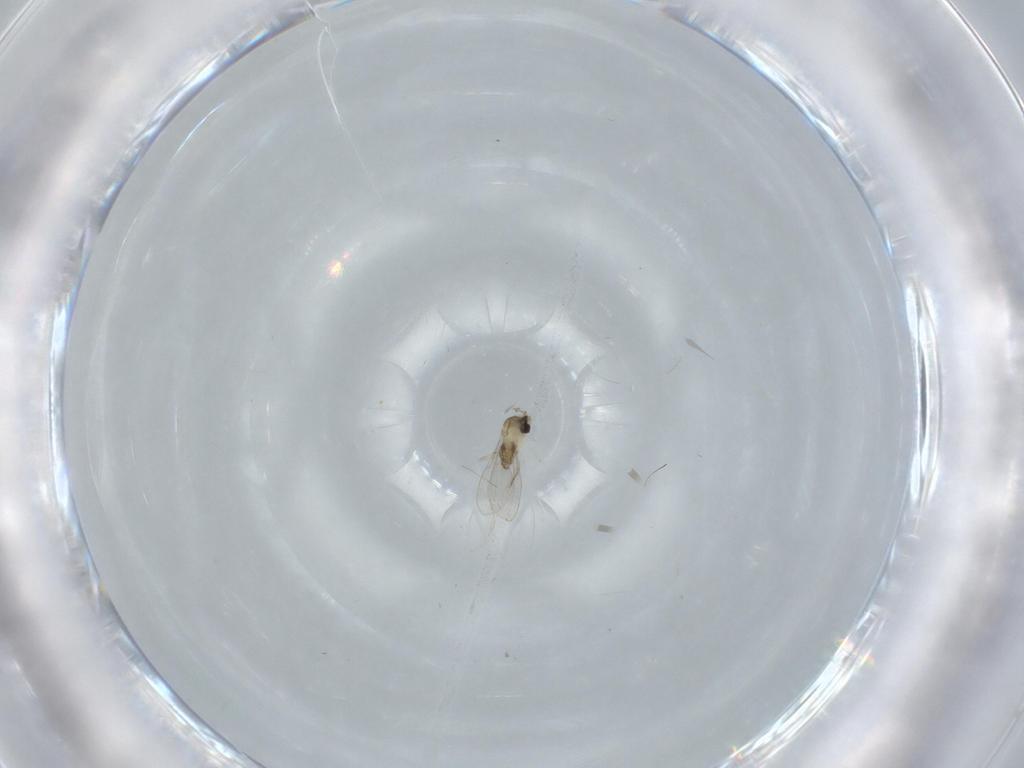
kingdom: Animalia
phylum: Arthropoda
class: Insecta
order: Diptera
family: Cecidomyiidae
